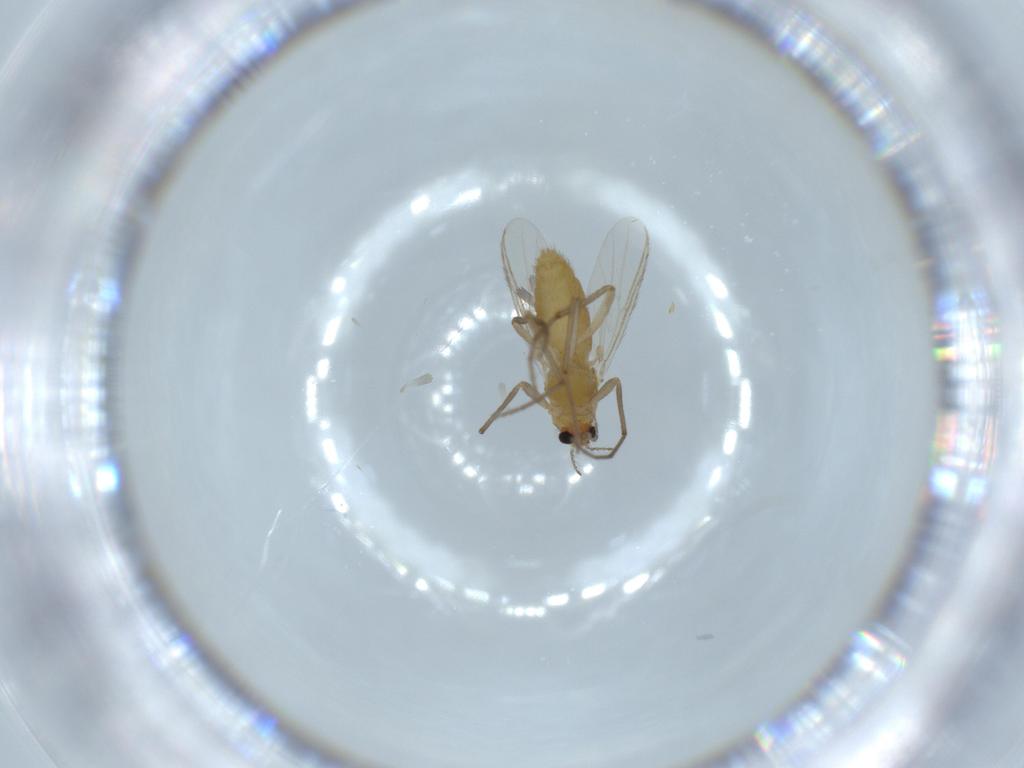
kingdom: Animalia
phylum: Arthropoda
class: Insecta
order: Diptera
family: Chironomidae
